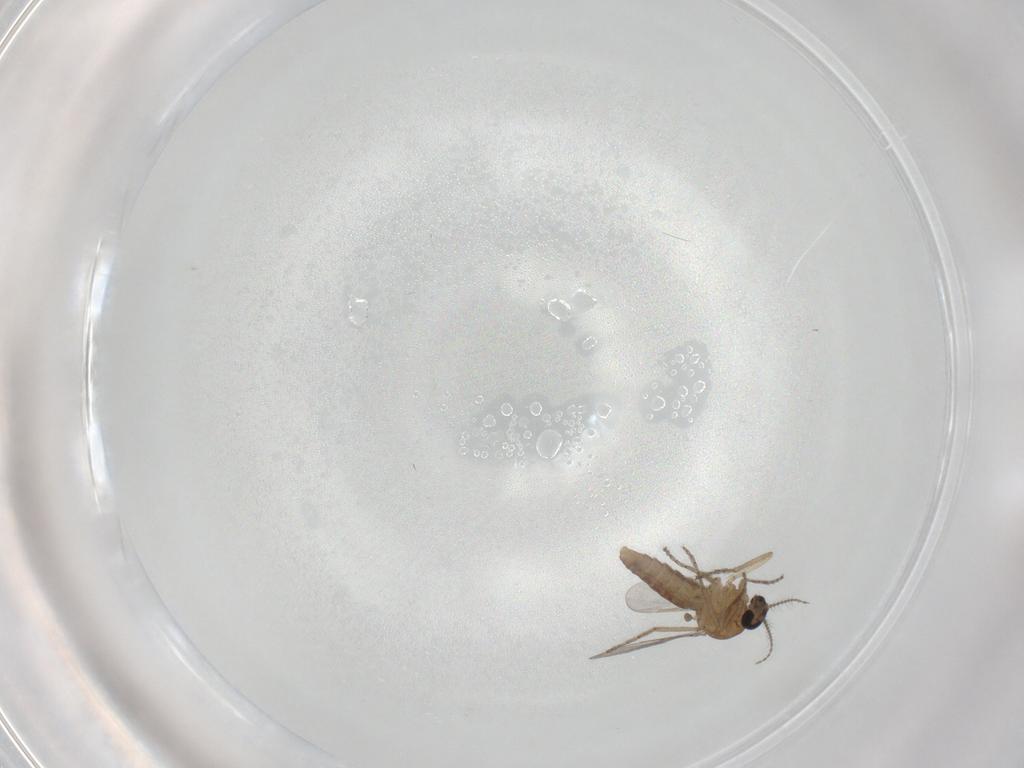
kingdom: Animalia
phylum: Arthropoda
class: Insecta
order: Diptera
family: Ceratopogonidae
